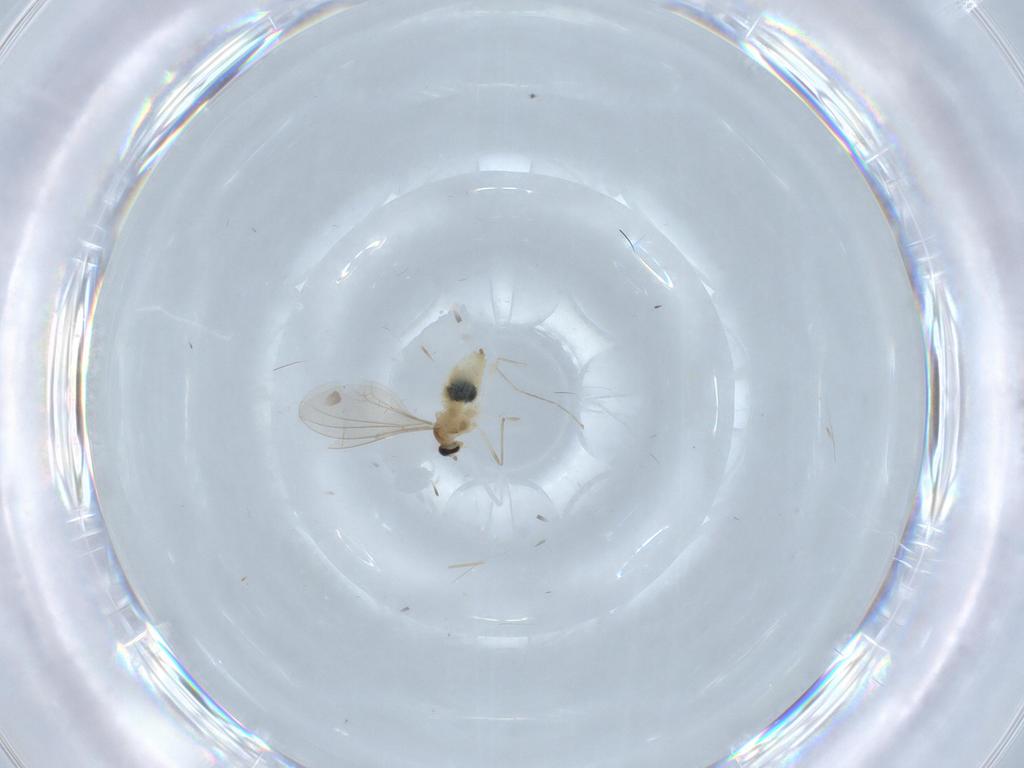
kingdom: Animalia
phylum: Arthropoda
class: Insecta
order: Diptera
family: Cecidomyiidae
